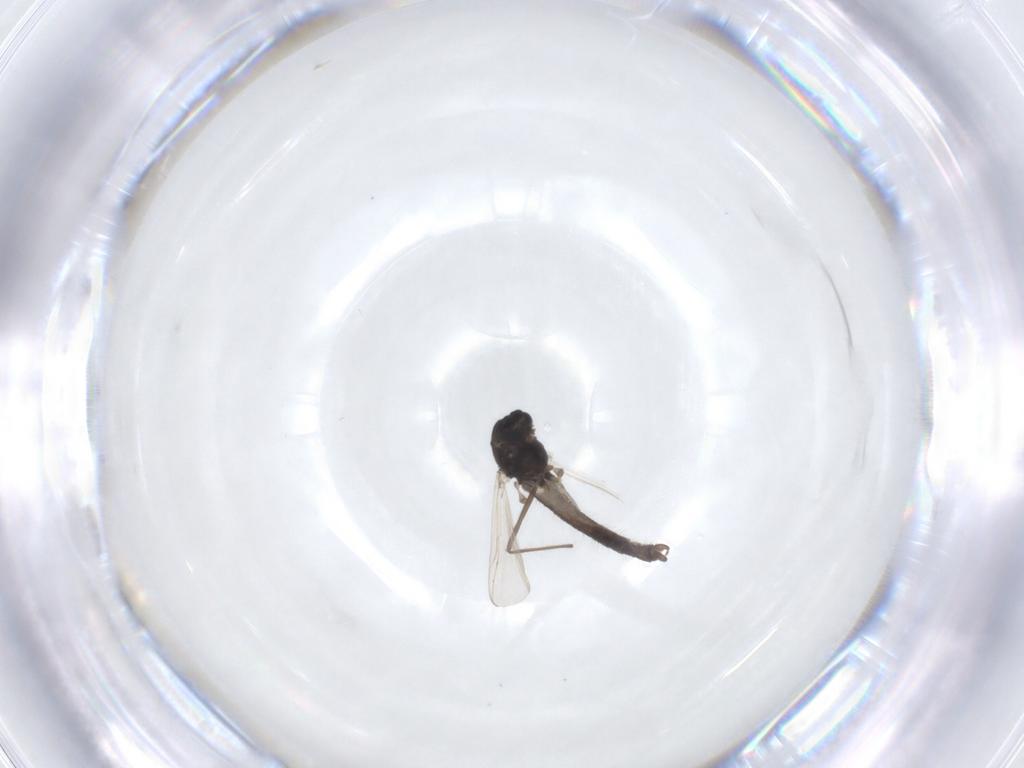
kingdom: Animalia
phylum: Arthropoda
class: Insecta
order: Diptera
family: Chironomidae
